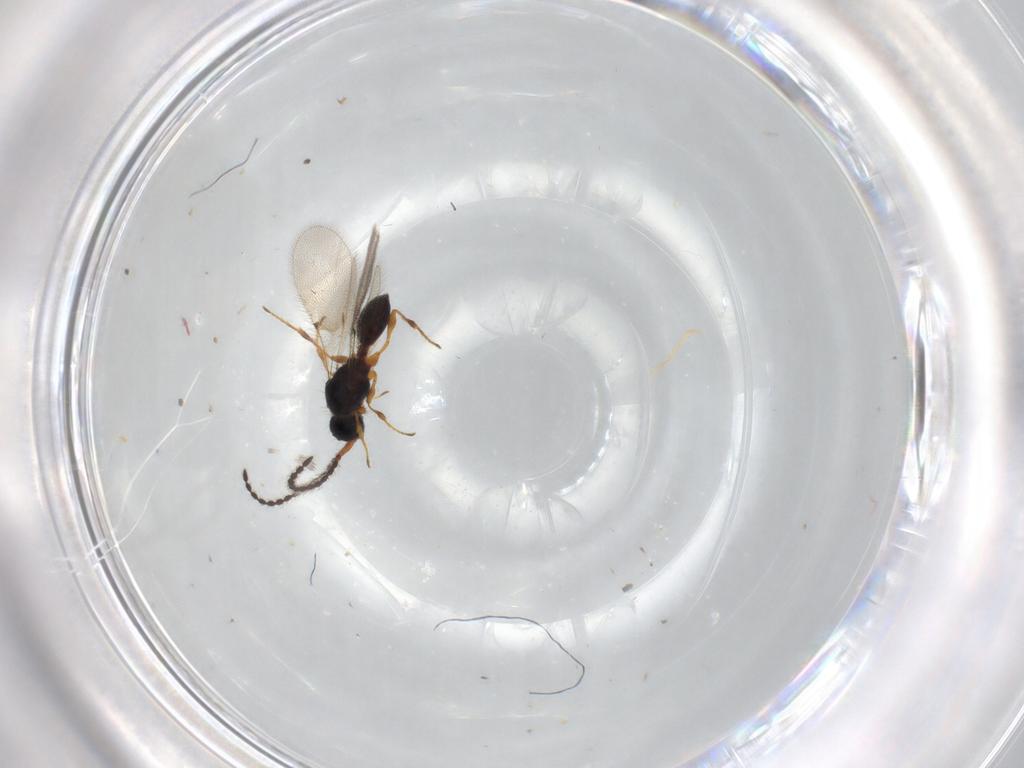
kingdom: Animalia
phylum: Arthropoda
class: Insecta
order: Hymenoptera
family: Diapriidae
